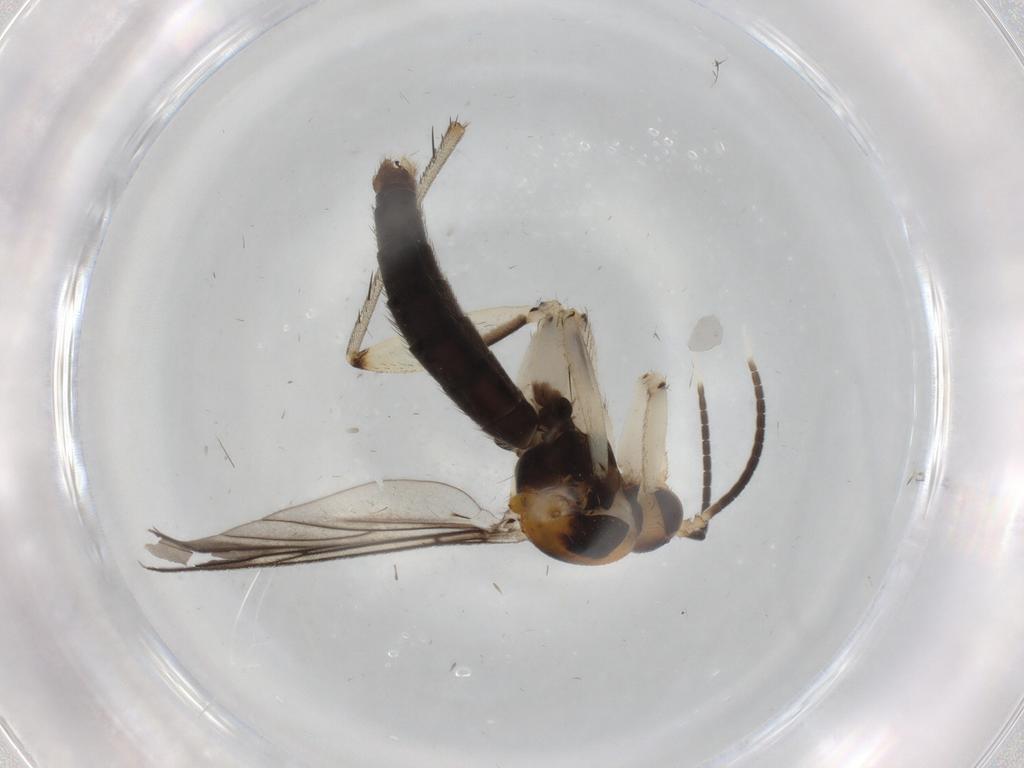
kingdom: Animalia
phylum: Arthropoda
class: Insecta
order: Diptera
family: Mycetophilidae
